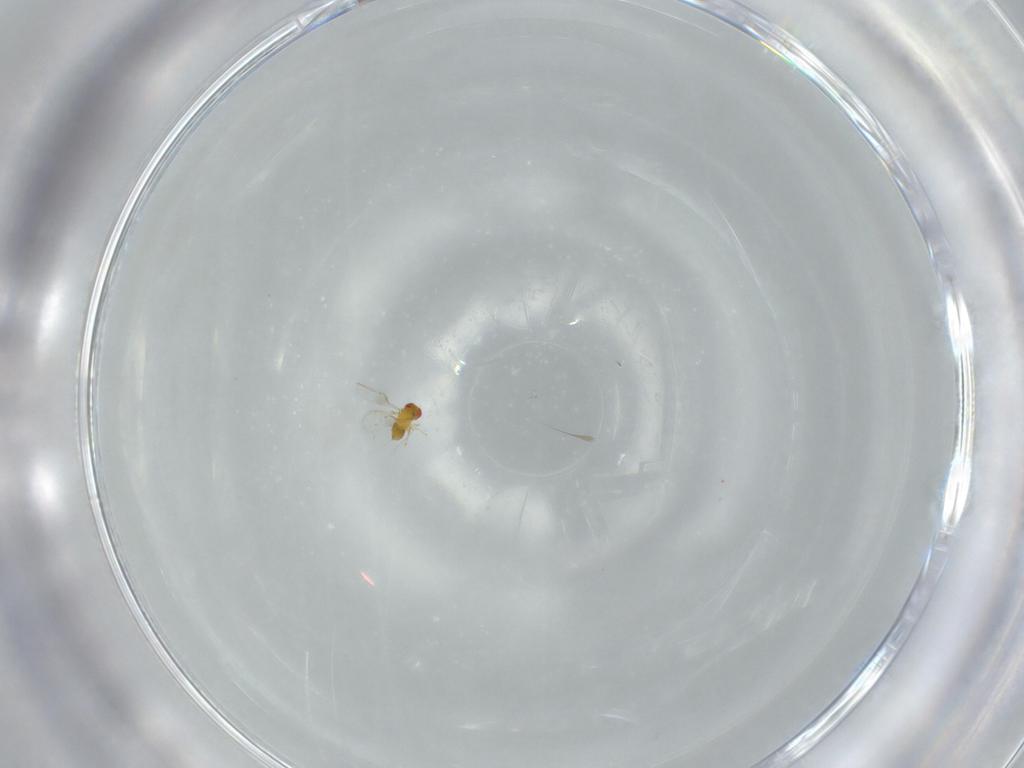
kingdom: Animalia
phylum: Arthropoda
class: Insecta
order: Hymenoptera
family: Trichogrammatidae
